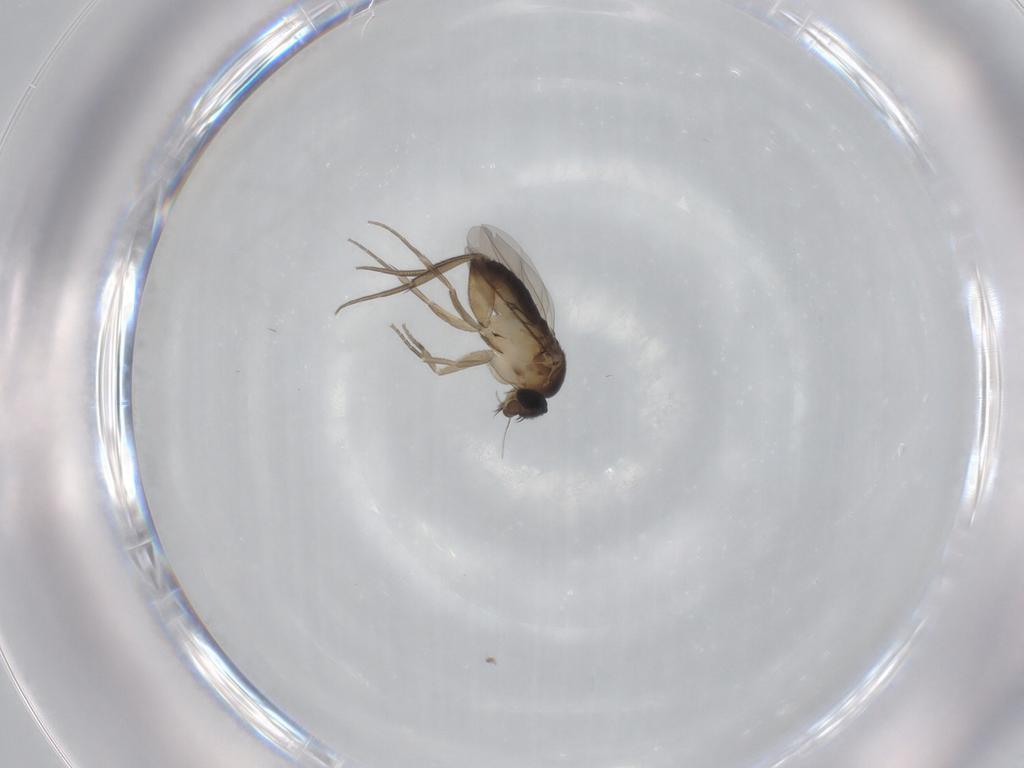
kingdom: Animalia
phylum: Arthropoda
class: Insecta
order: Diptera
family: Phoridae
